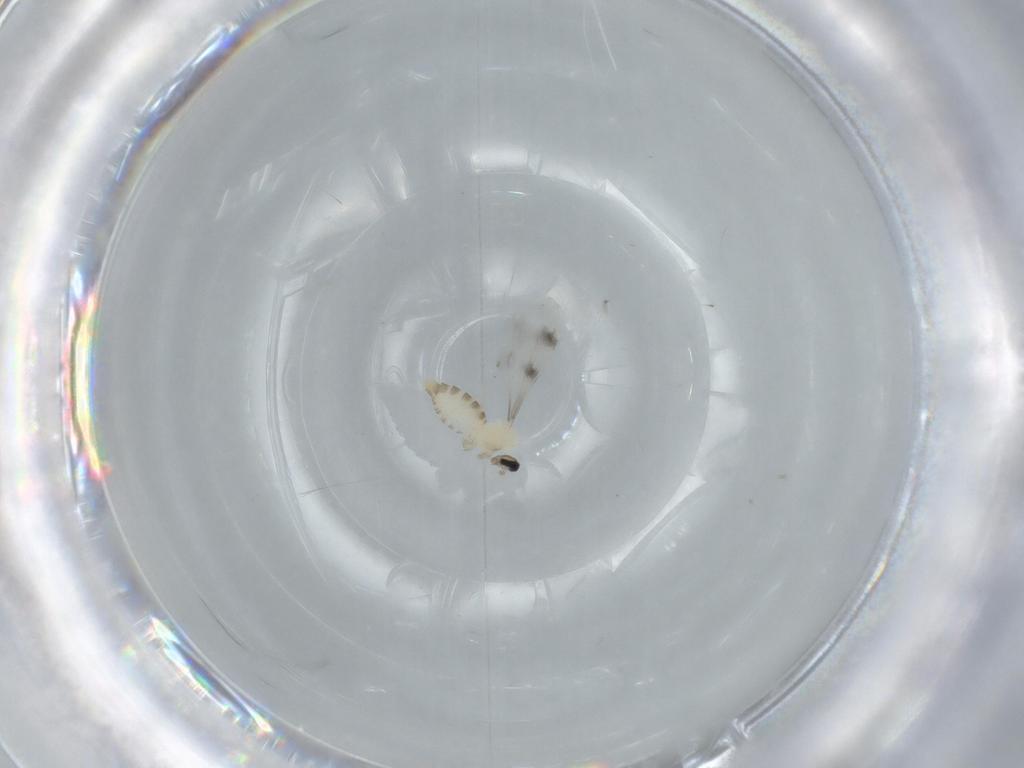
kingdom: Animalia
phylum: Arthropoda
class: Insecta
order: Diptera
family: Cecidomyiidae
